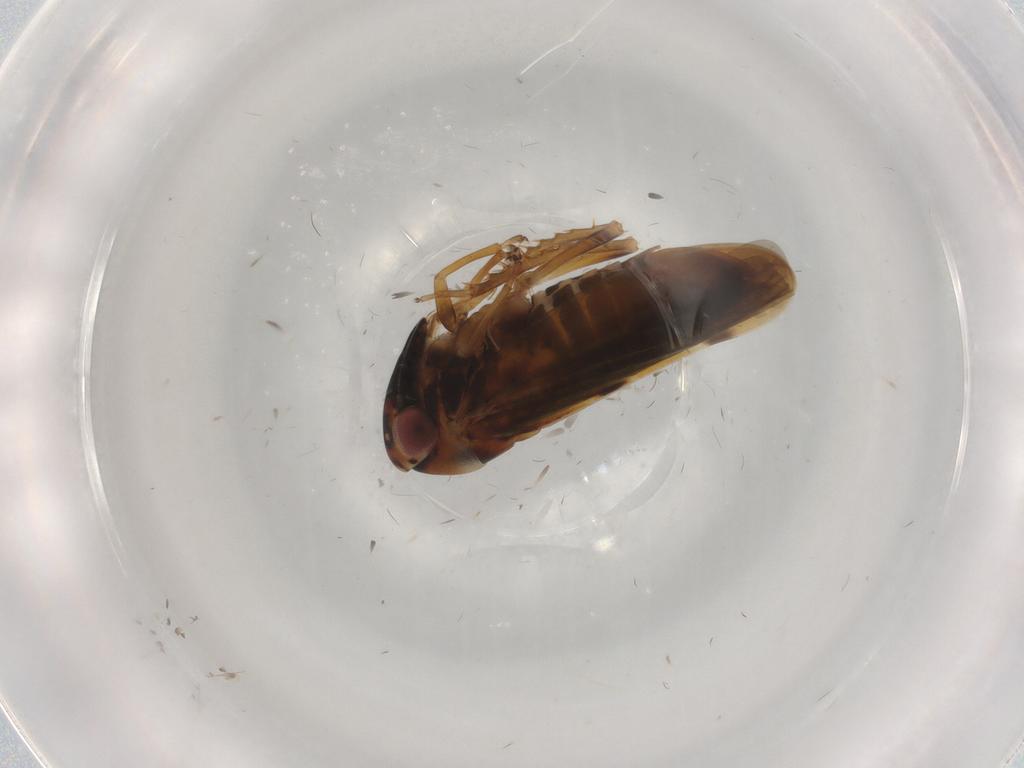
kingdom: Animalia
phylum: Arthropoda
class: Insecta
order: Hemiptera
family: Cicadellidae
